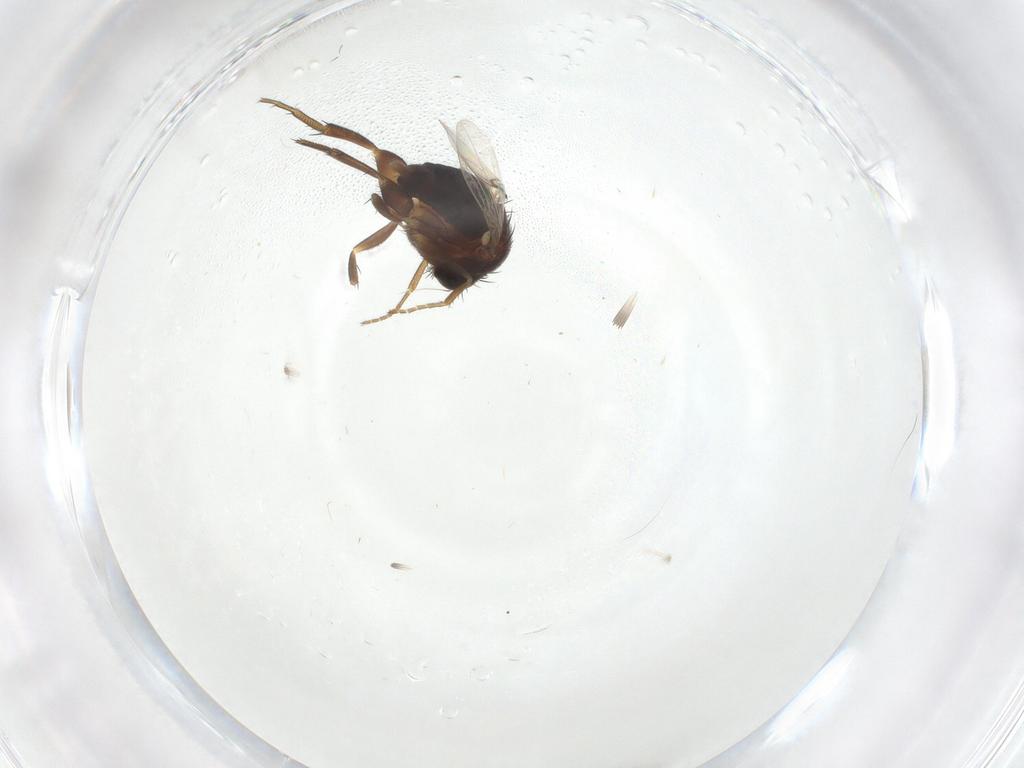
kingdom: Animalia
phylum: Arthropoda
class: Insecta
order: Diptera
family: Phoridae
